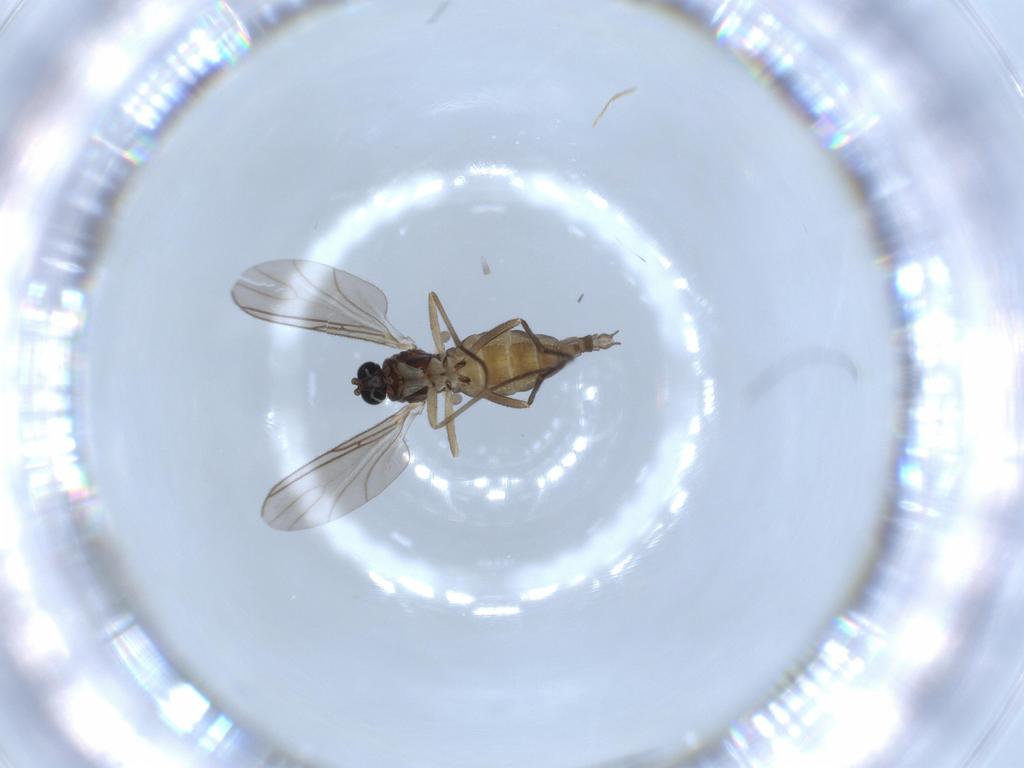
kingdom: Animalia
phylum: Arthropoda
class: Insecta
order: Diptera
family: Sciaridae
